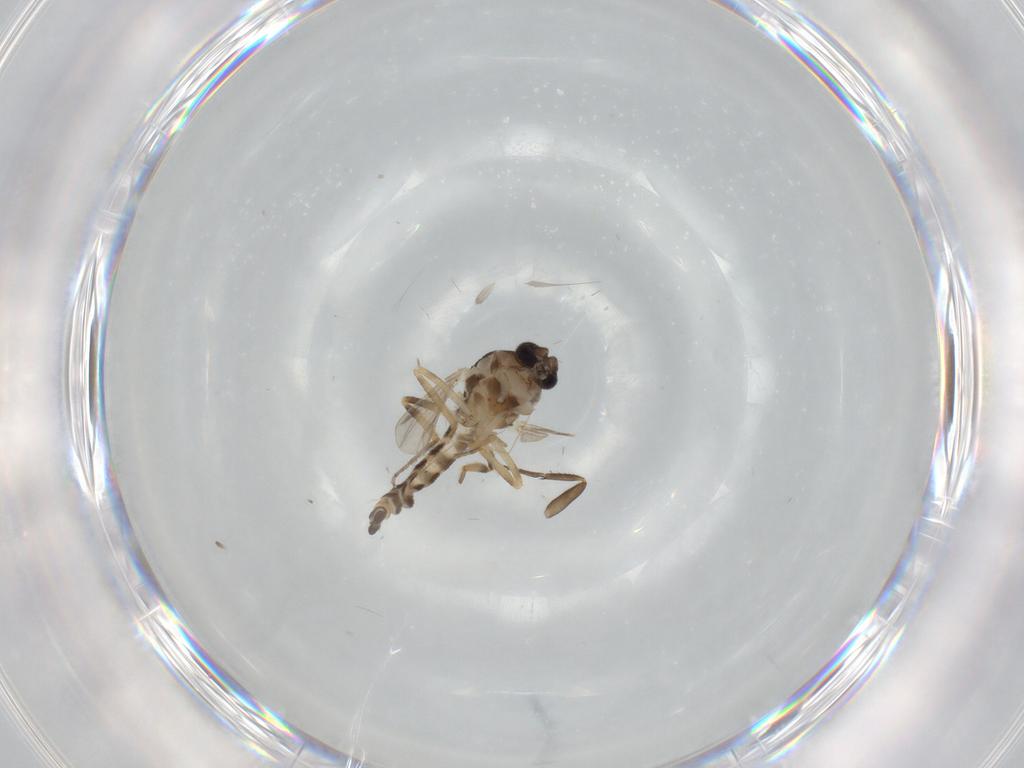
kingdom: Animalia
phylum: Arthropoda
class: Insecta
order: Diptera
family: Ceratopogonidae
